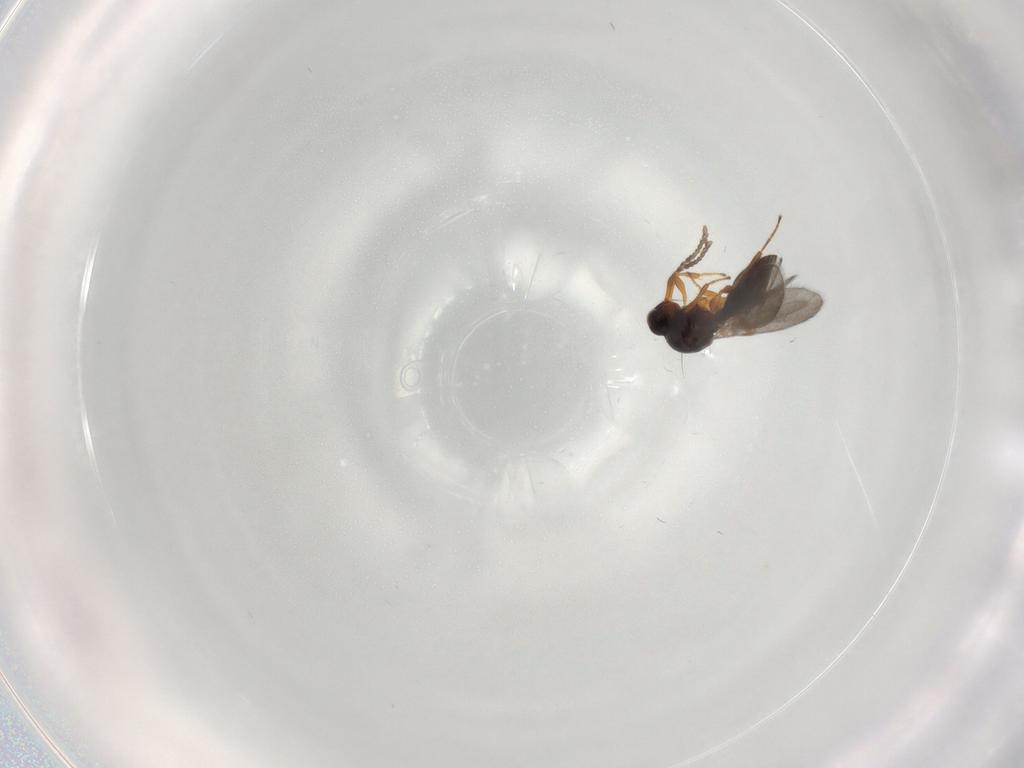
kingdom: Animalia
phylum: Arthropoda
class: Insecta
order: Hymenoptera
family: Platygastridae
